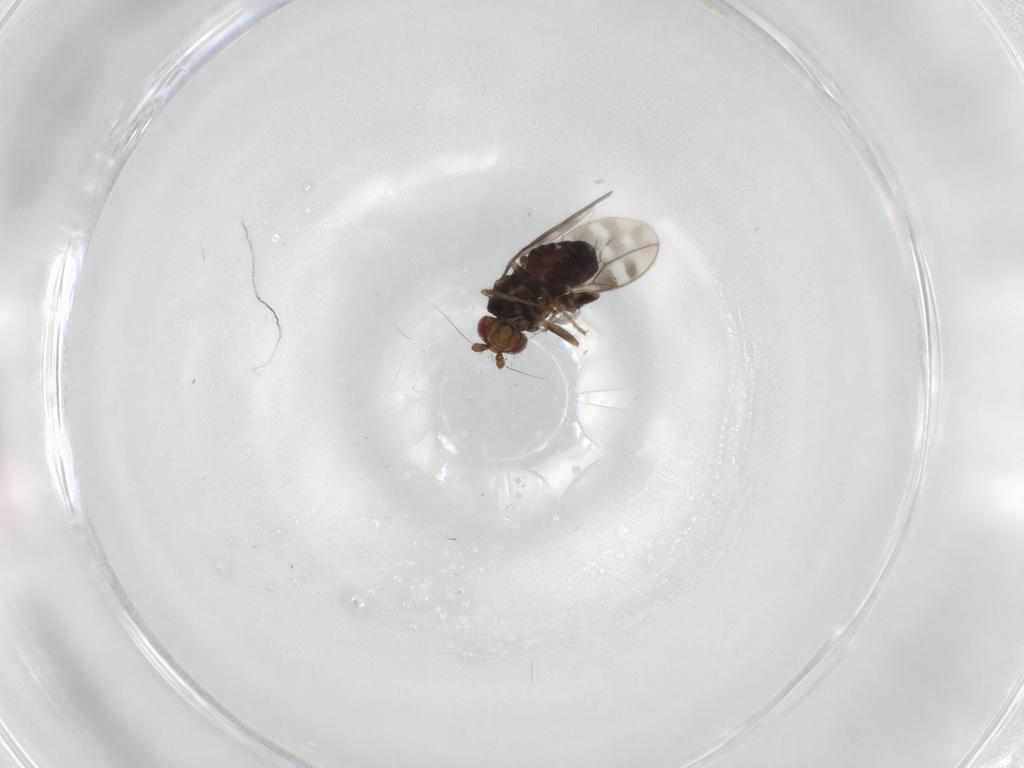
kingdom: Animalia
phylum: Arthropoda
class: Insecta
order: Diptera
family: Sphaeroceridae
